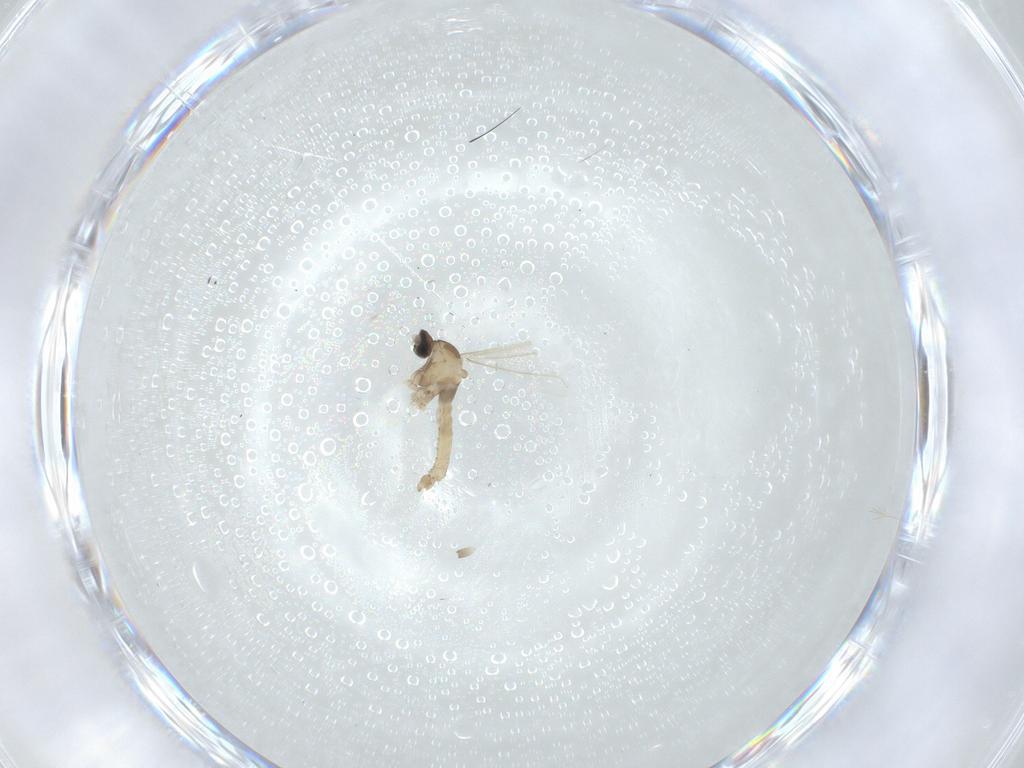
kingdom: Animalia
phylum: Arthropoda
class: Insecta
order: Diptera
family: Cecidomyiidae
